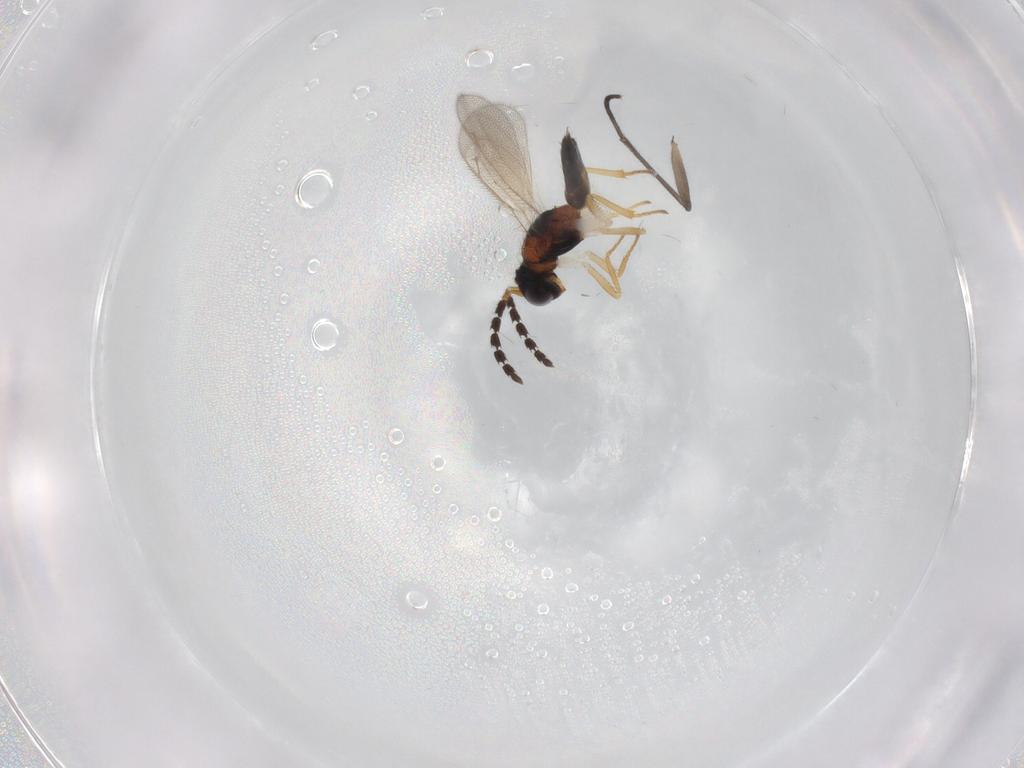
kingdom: Animalia
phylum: Arthropoda
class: Insecta
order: Hymenoptera
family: Eulophidae
